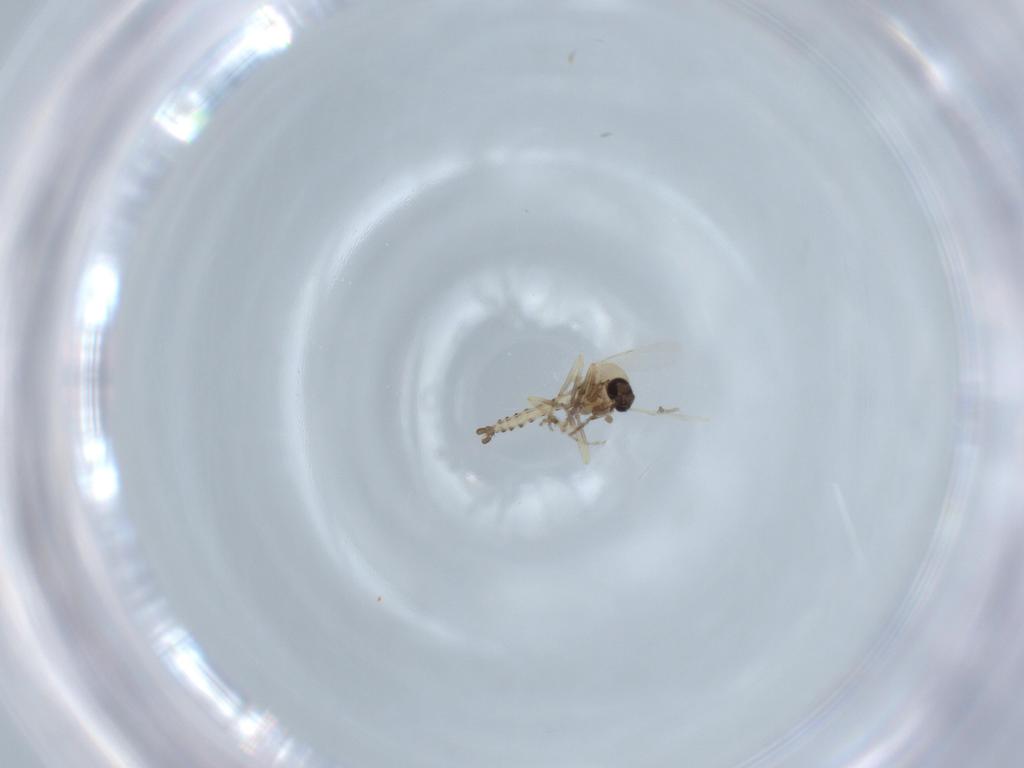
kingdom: Animalia
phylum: Arthropoda
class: Insecta
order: Diptera
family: Ceratopogonidae
